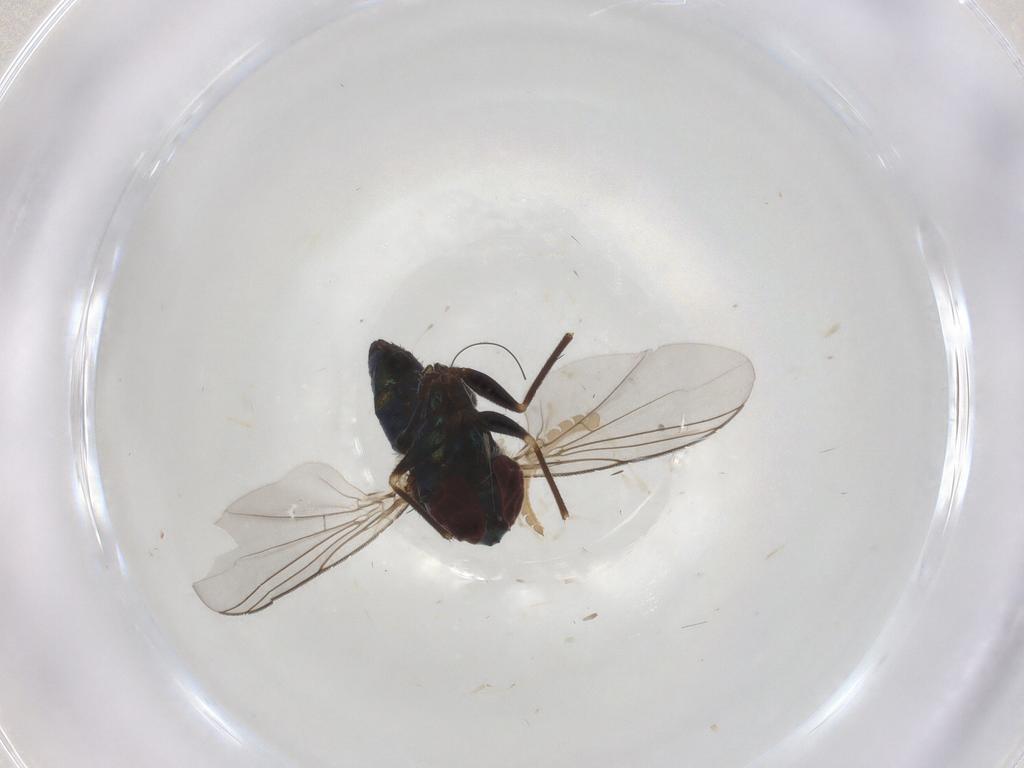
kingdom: Animalia
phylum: Arthropoda
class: Insecta
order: Diptera
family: Dolichopodidae
